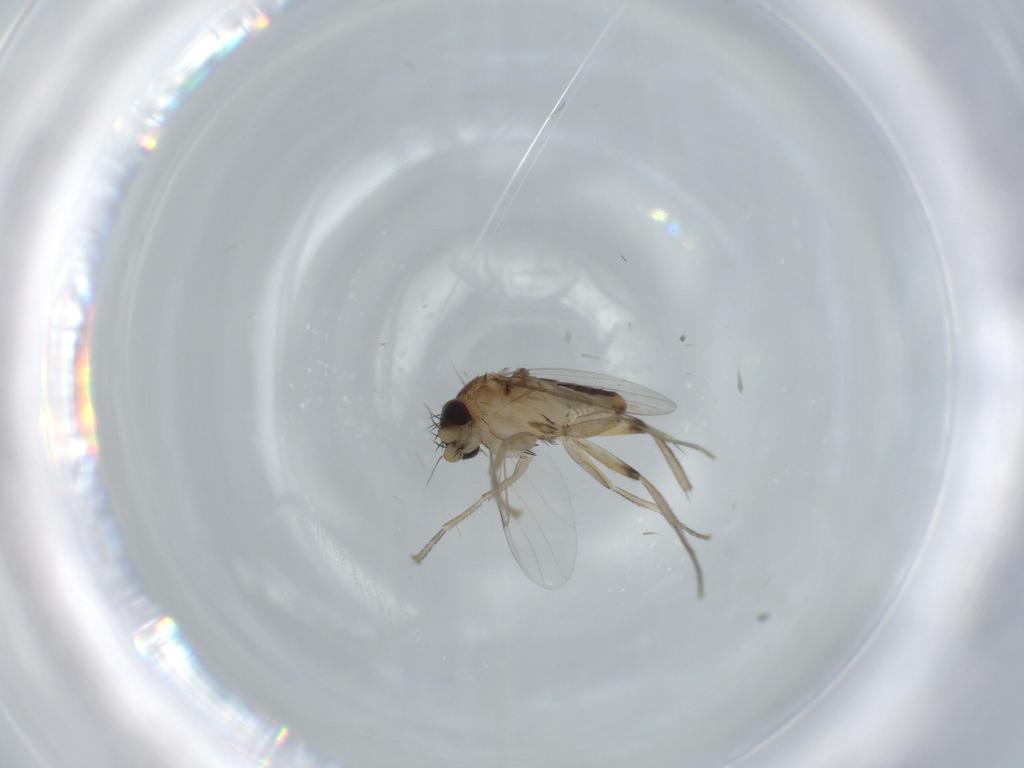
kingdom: Animalia
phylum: Arthropoda
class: Insecta
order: Diptera
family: Phoridae
